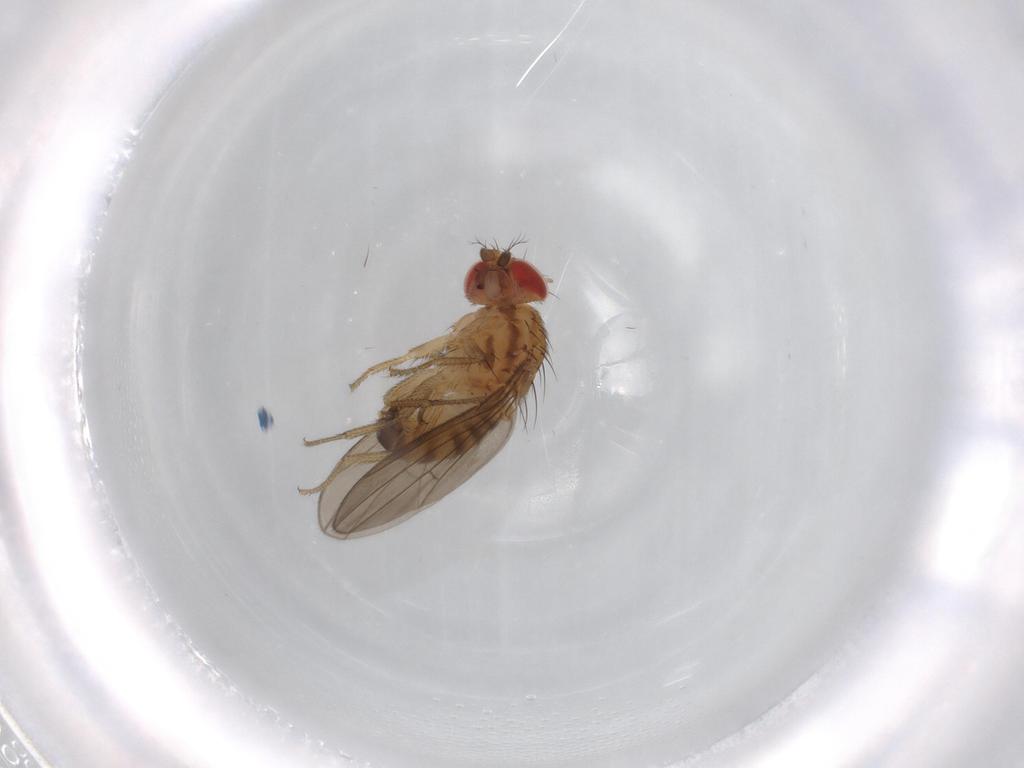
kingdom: Animalia
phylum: Arthropoda
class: Insecta
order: Diptera
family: Drosophilidae
